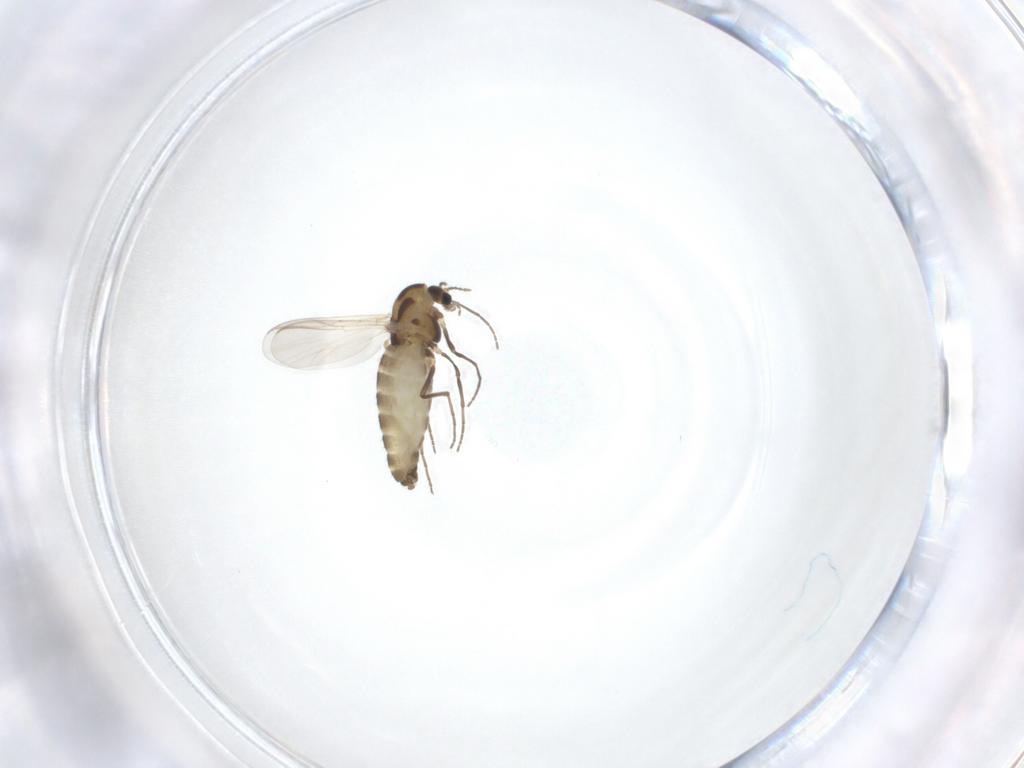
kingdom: Animalia
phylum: Arthropoda
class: Insecta
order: Diptera
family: Chironomidae
